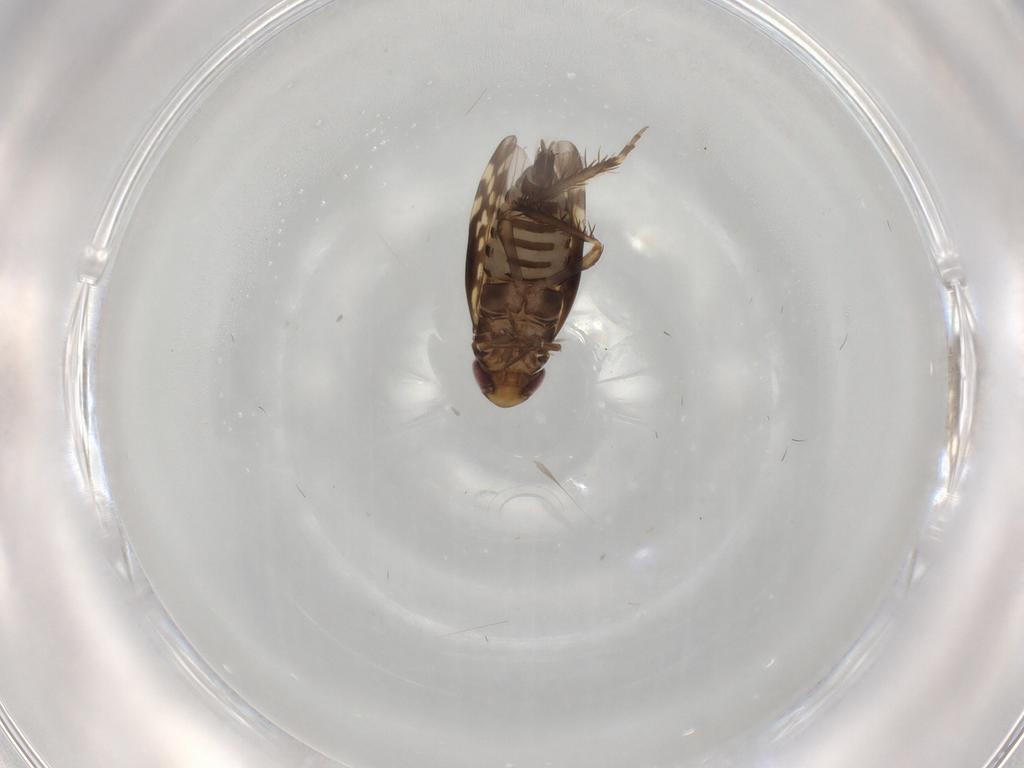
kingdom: Animalia
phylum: Arthropoda
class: Insecta
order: Hemiptera
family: Cicadellidae
